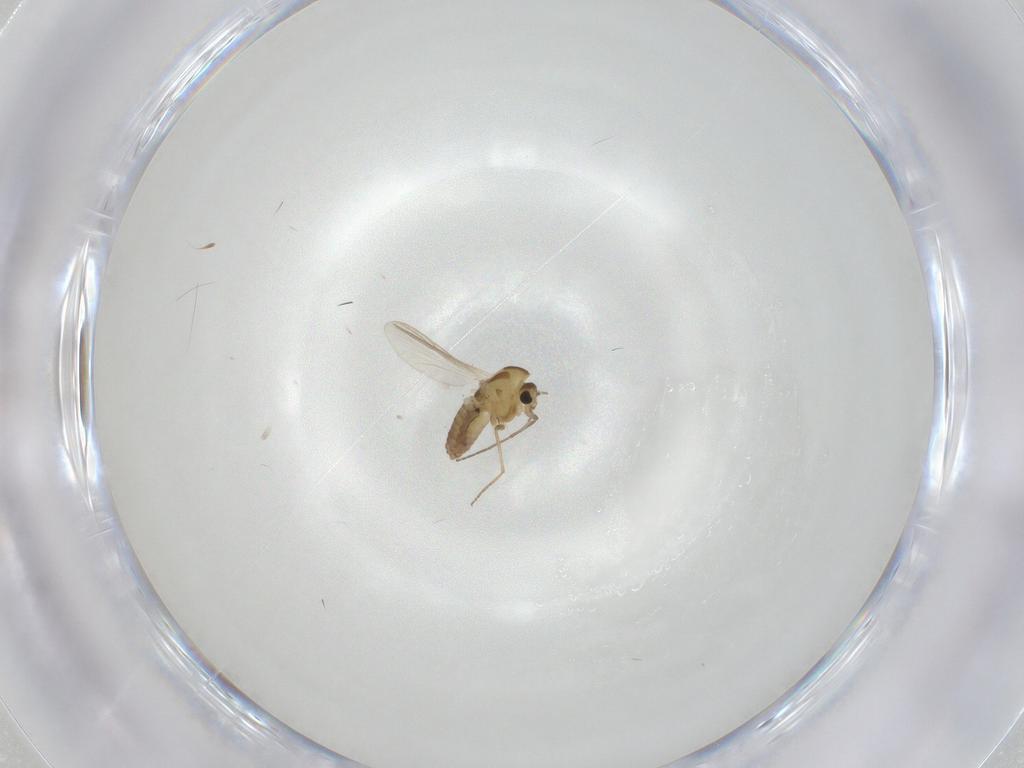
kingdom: Animalia
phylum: Arthropoda
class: Insecta
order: Diptera
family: Chironomidae
